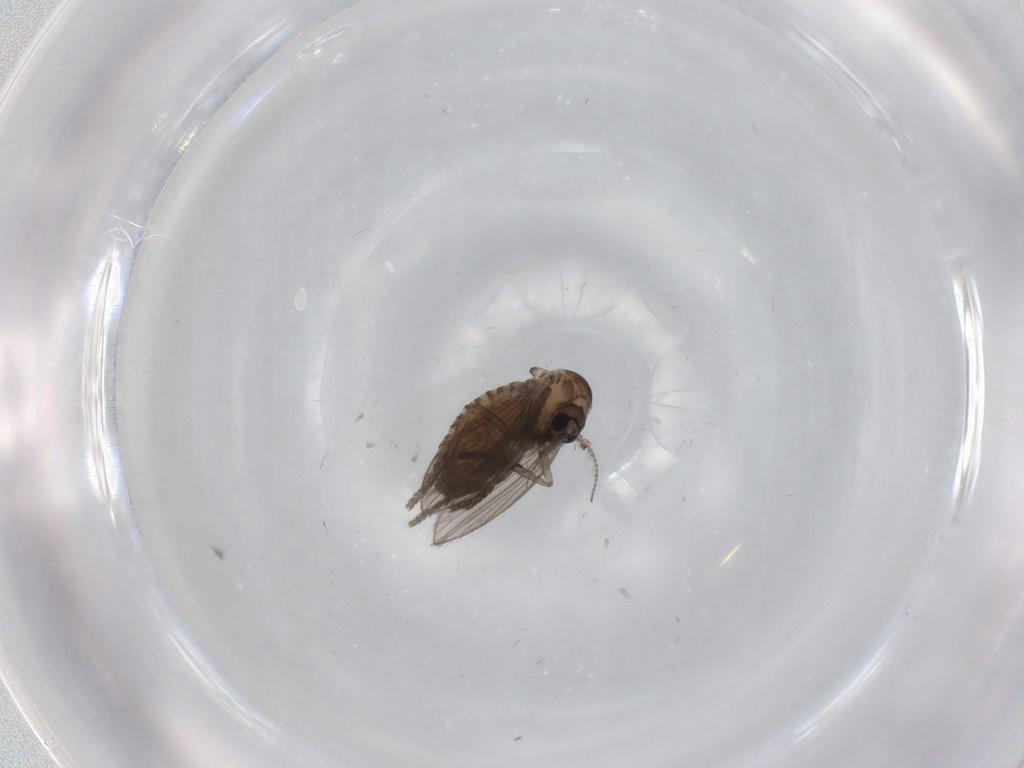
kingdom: Animalia
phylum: Arthropoda
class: Insecta
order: Diptera
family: Psychodidae
